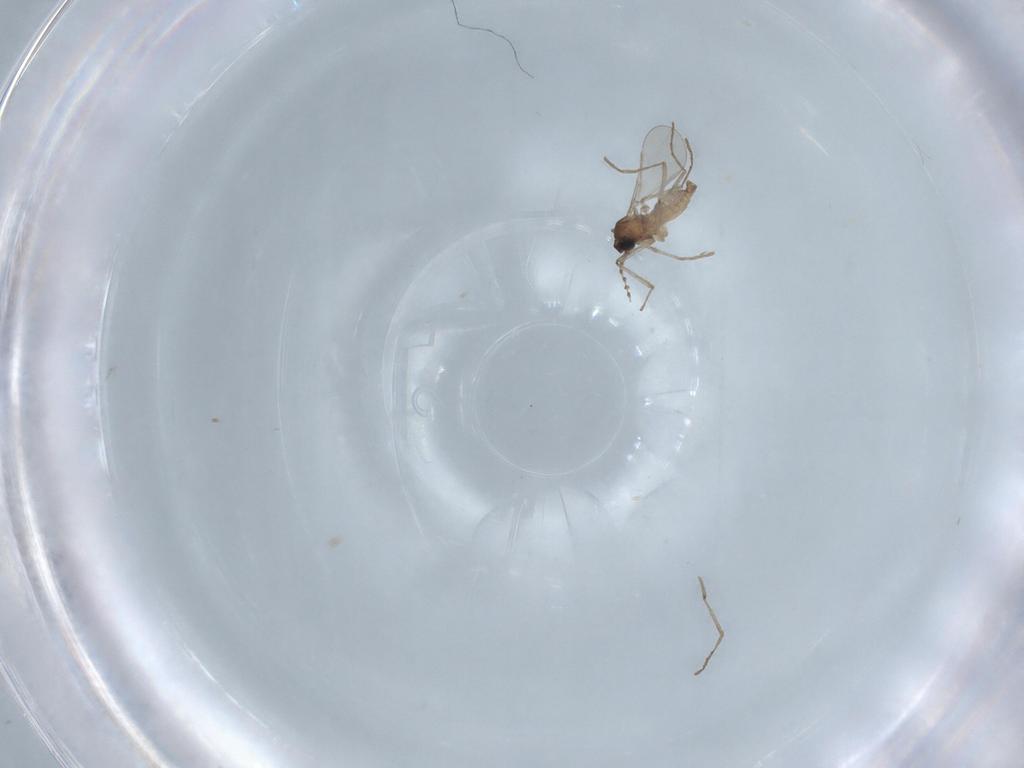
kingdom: Animalia
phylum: Arthropoda
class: Insecta
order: Diptera
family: Cecidomyiidae
